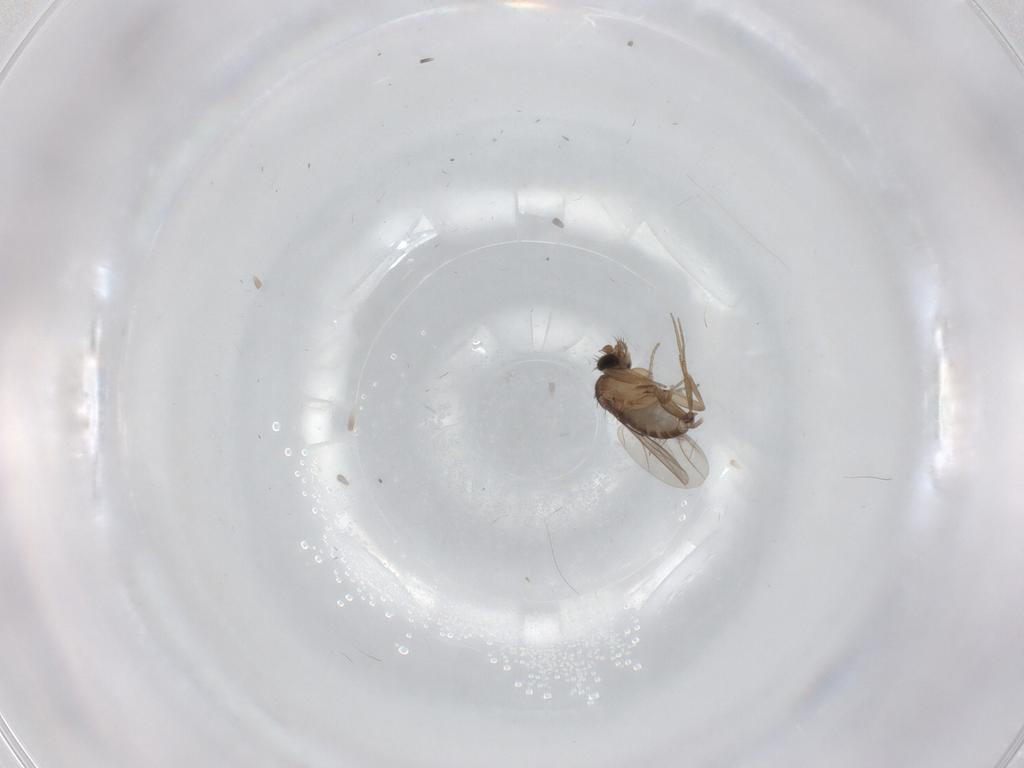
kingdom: Animalia
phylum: Arthropoda
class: Insecta
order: Diptera
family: Cecidomyiidae
